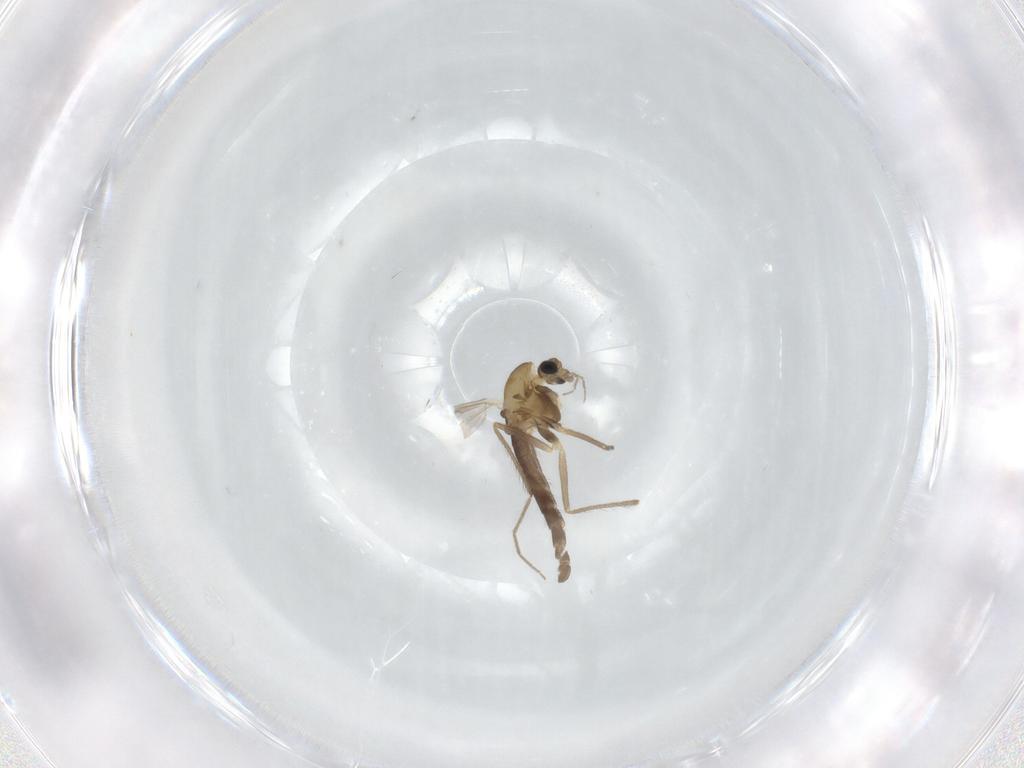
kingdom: Animalia
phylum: Arthropoda
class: Insecta
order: Diptera
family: Chironomidae
